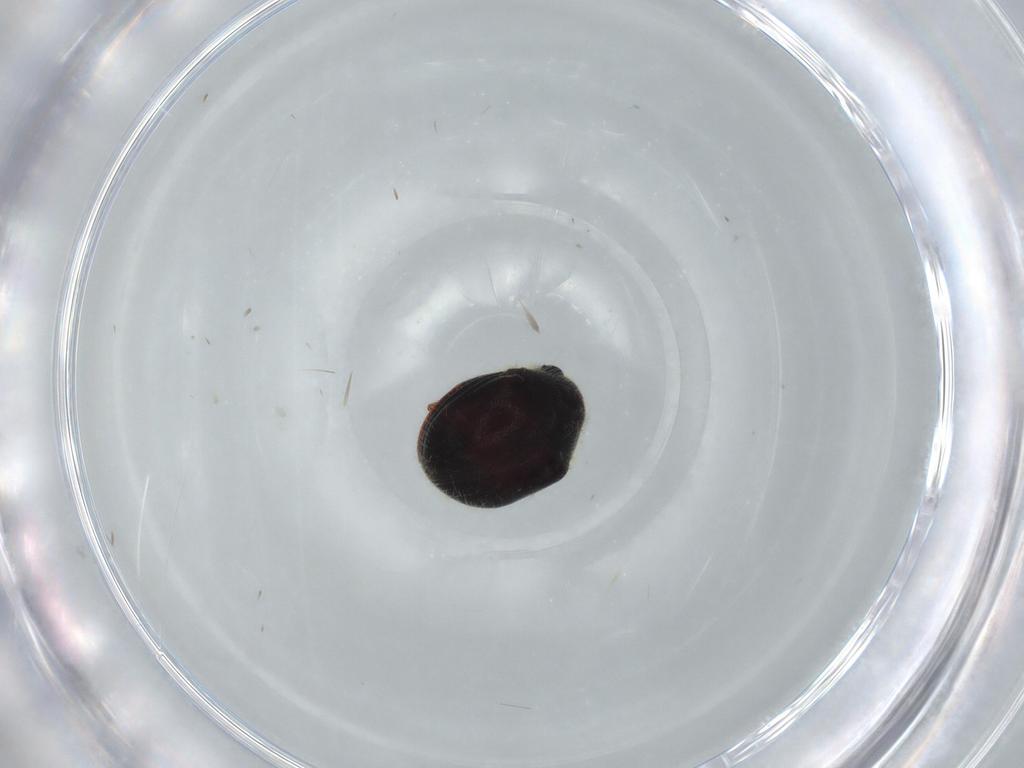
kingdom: Animalia
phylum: Arthropoda
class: Insecta
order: Coleoptera
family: Ptinidae
